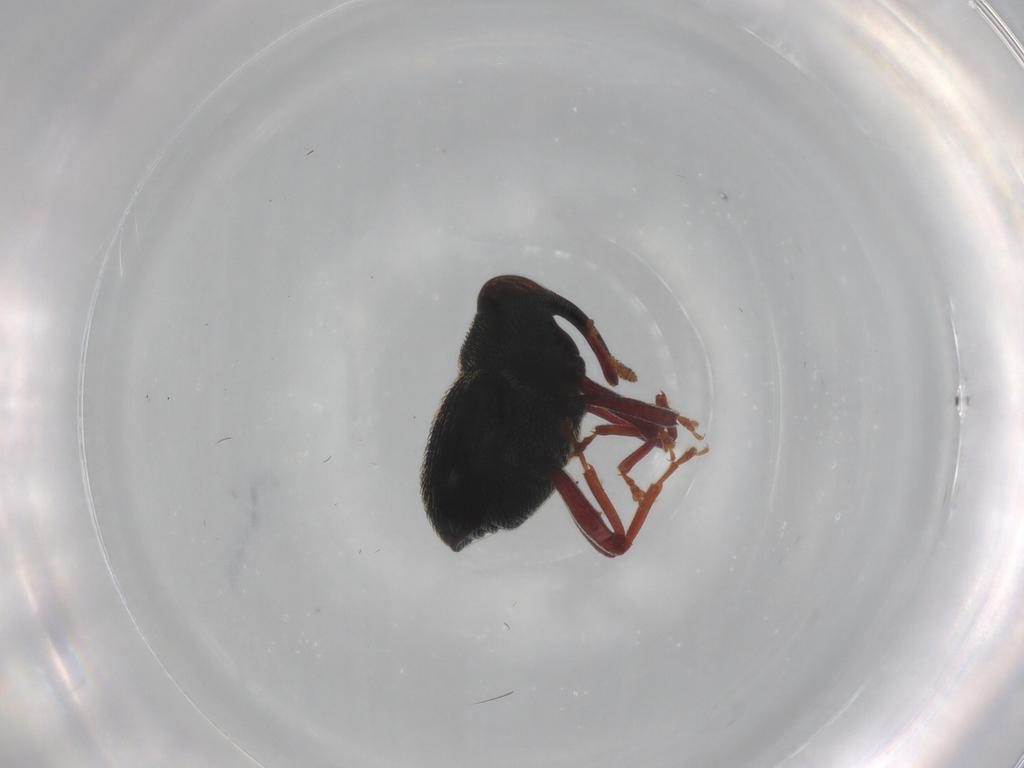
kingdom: Animalia
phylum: Arthropoda
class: Insecta
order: Coleoptera
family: Curculionidae
